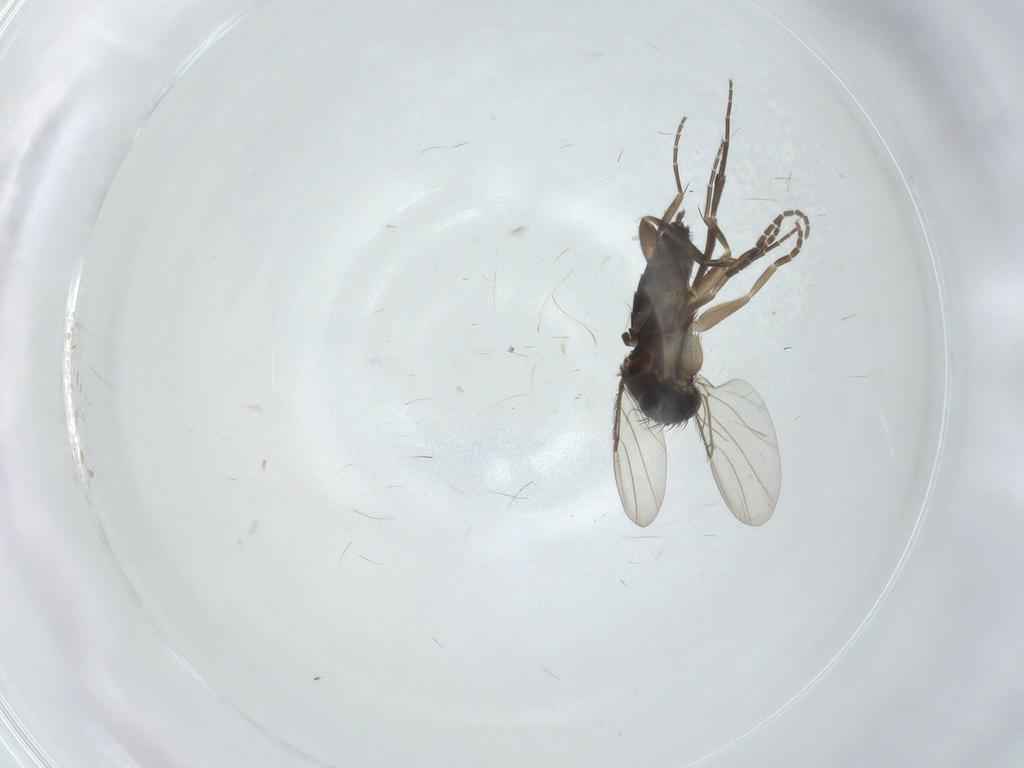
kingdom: Animalia
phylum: Arthropoda
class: Insecta
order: Diptera
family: Phoridae
